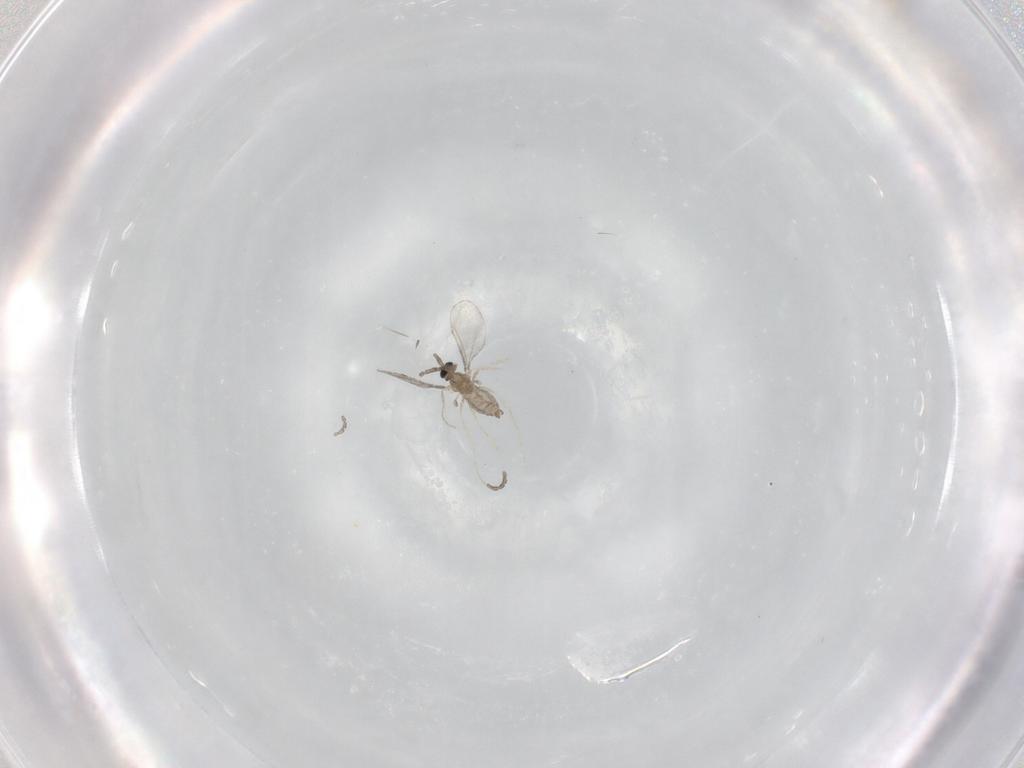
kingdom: Animalia
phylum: Arthropoda
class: Insecta
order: Diptera
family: Cecidomyiidae
